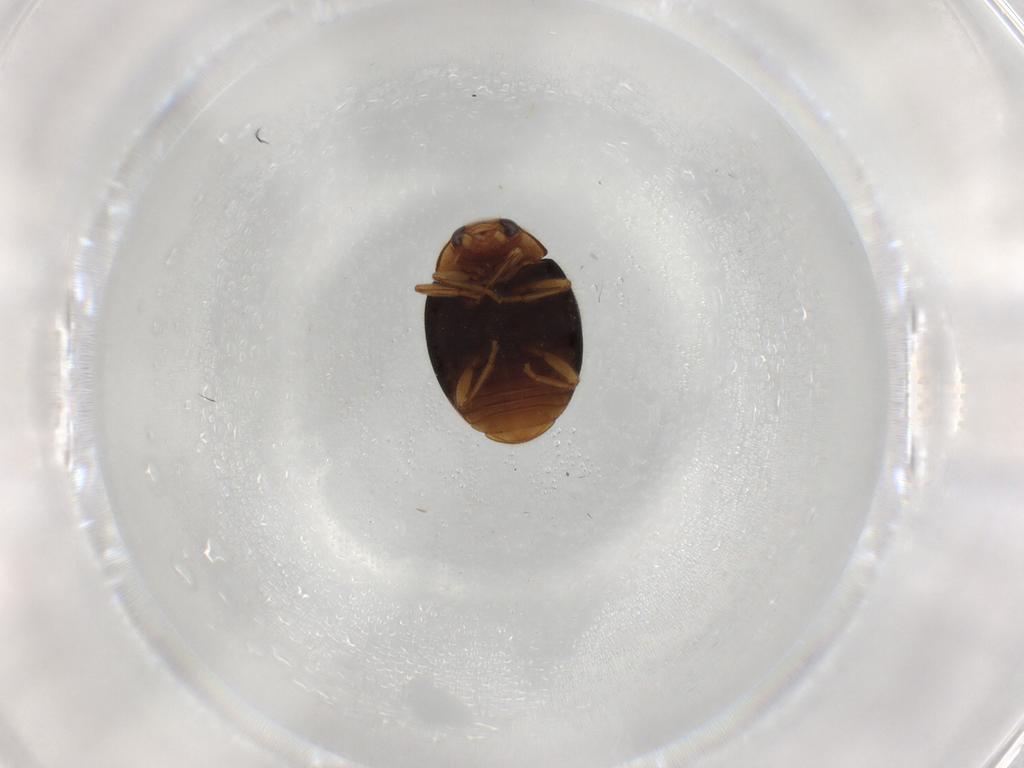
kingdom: Animalia
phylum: Arthropoda
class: Insecta
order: Coleoptera
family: Coccinellidae
